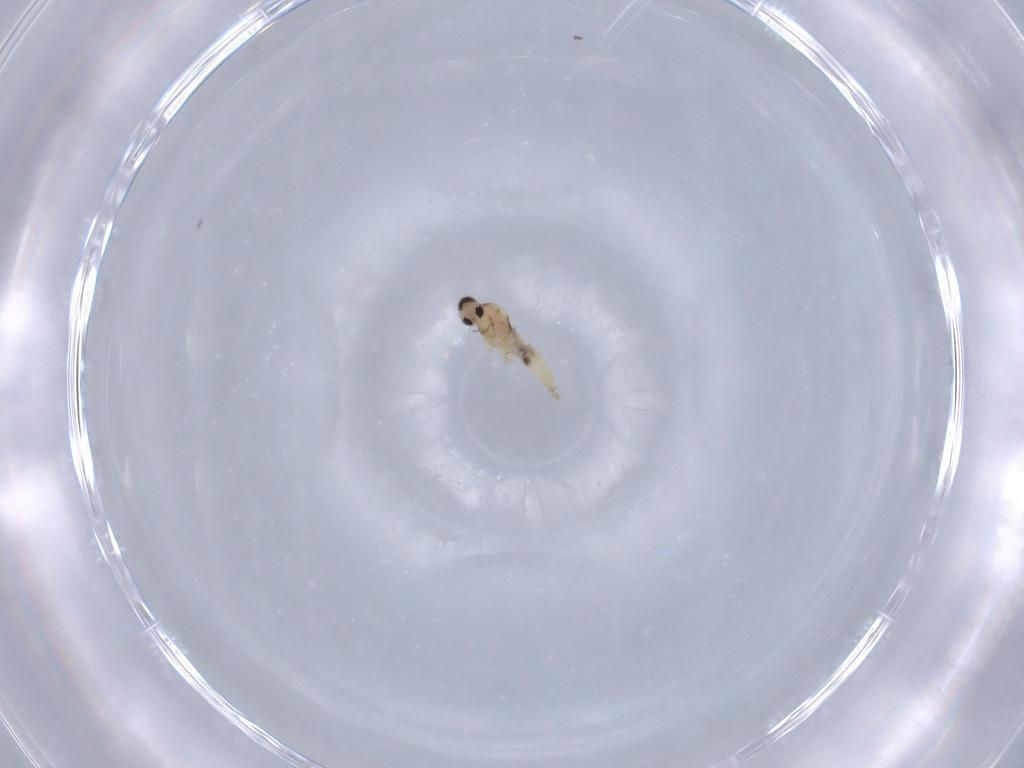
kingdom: Animalia
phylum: Arthropoda
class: Insecta
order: Diptera
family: Cecidomyiidae
